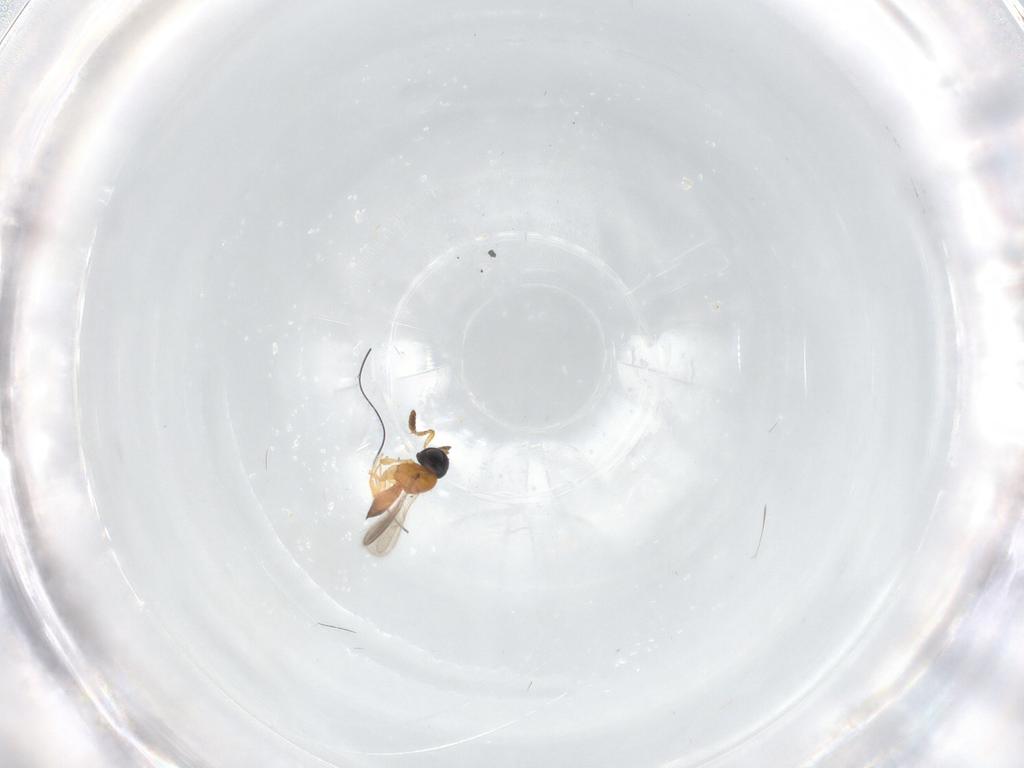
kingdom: Animalia
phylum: Arthropoda
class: Insecta
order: Hymenoptera
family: Scelionidae
